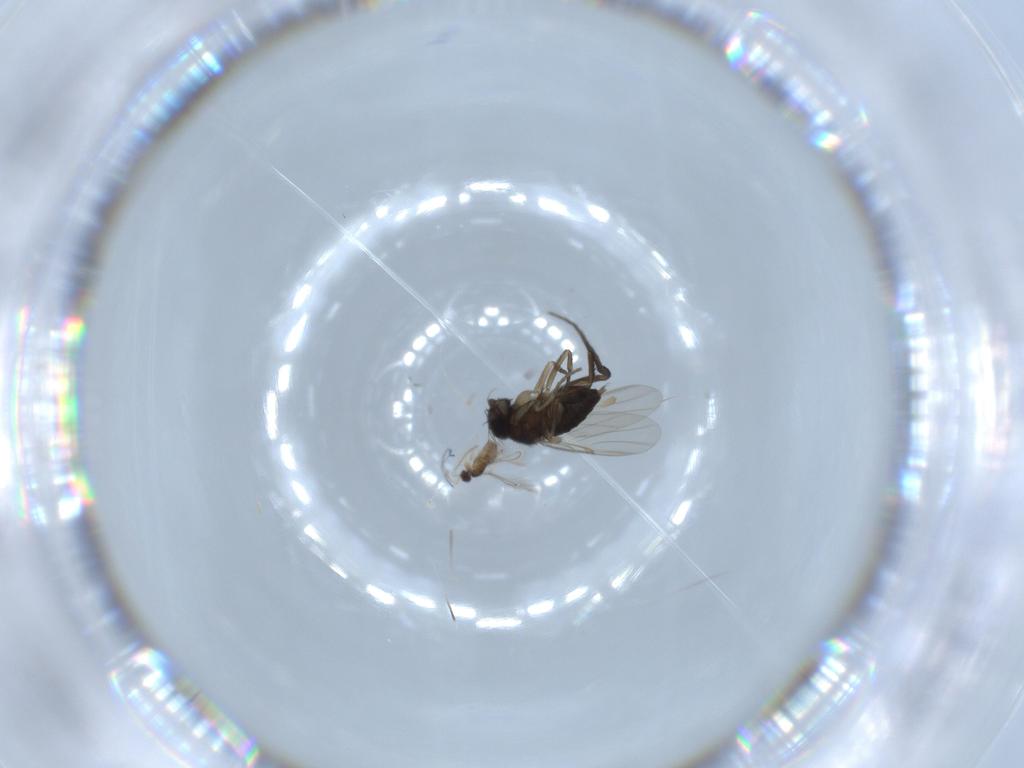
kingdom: Animalia
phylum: Arthropoda
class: Insecta
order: Diptera
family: Phoridae
